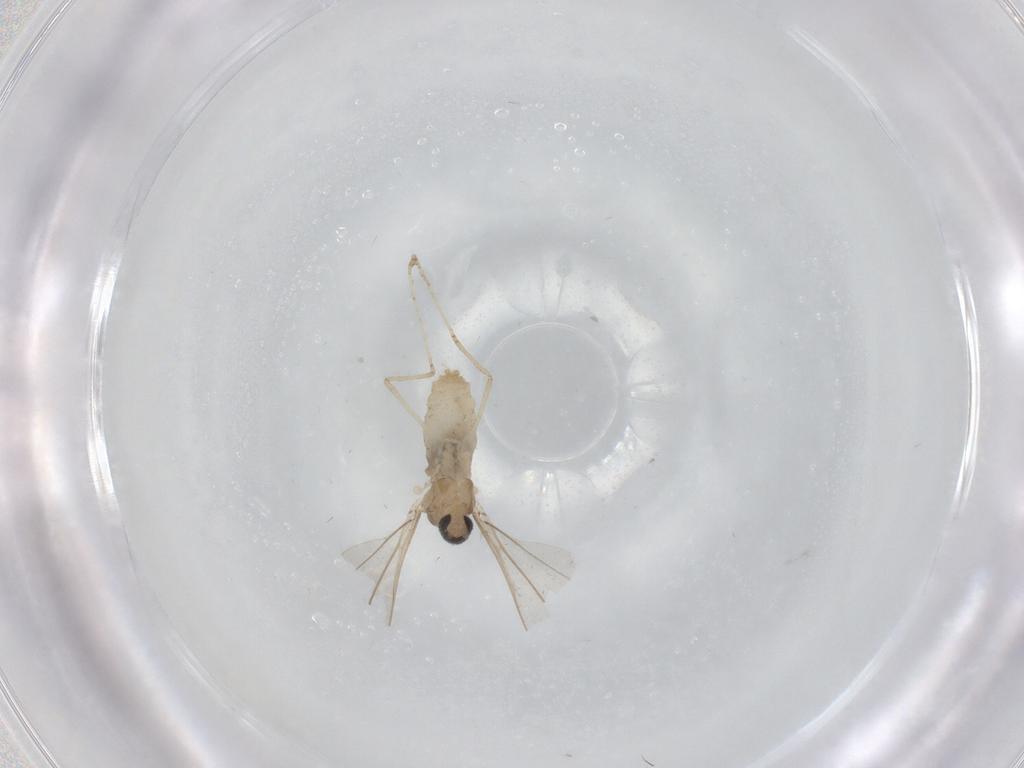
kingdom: Animalia
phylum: Arthropoda
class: Insecta
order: Diptera
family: Cecidomyiidae
